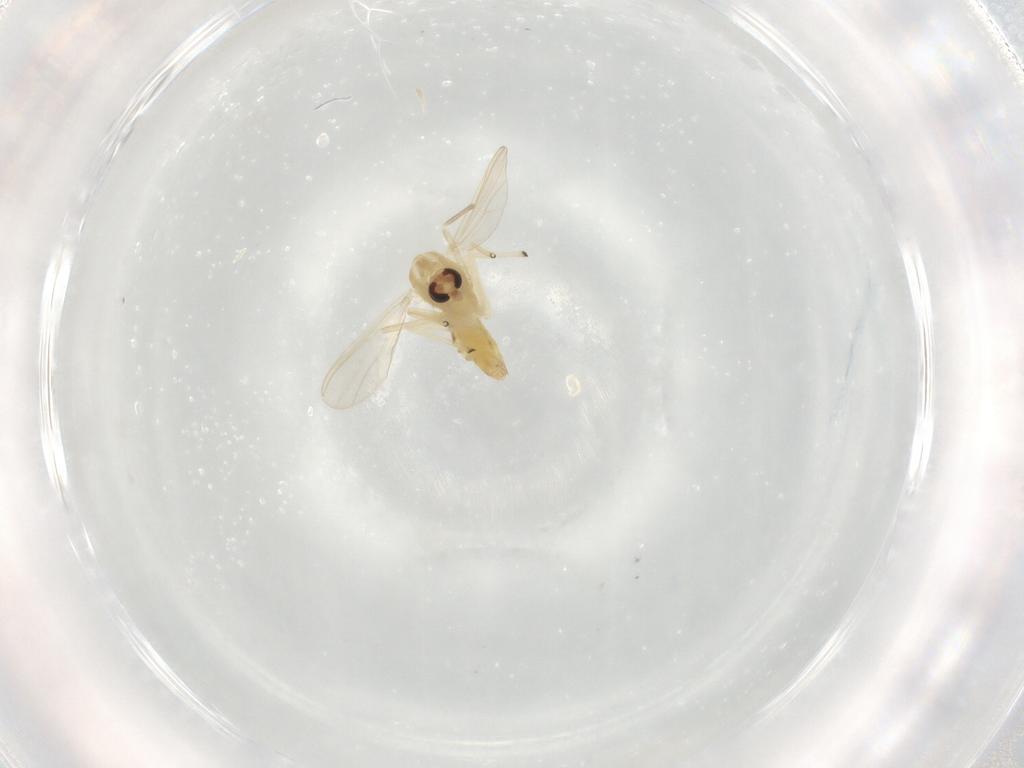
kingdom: Animalia
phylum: Arthropoda
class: Insecta
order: Diptera
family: Chironomidae
